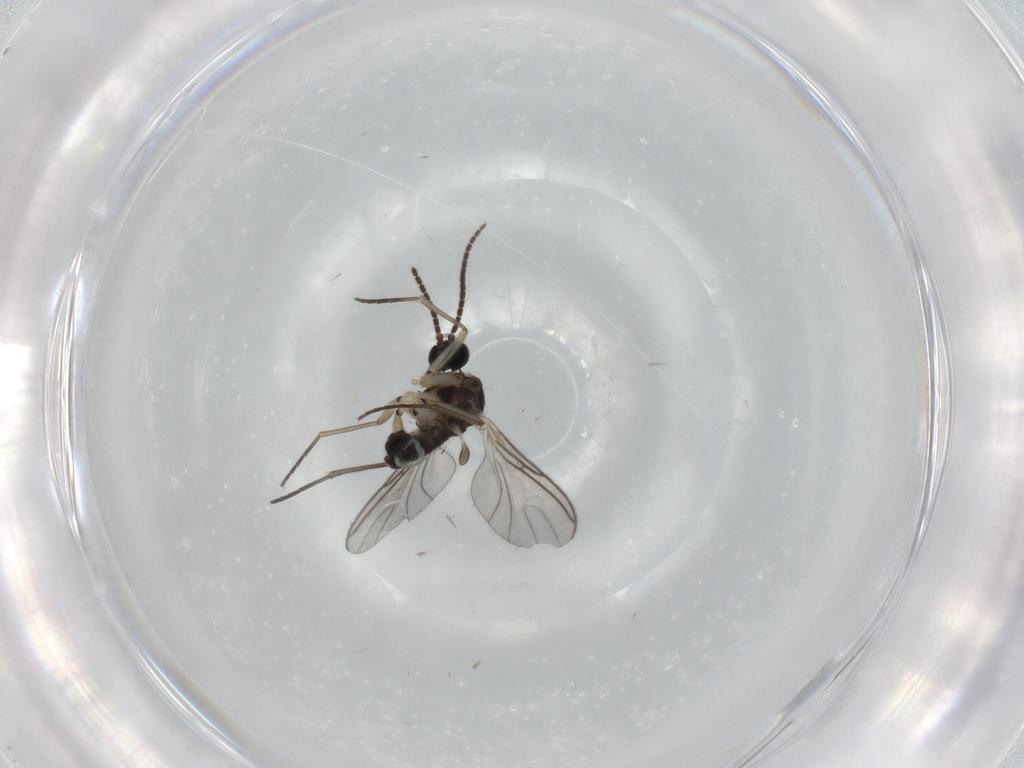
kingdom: Animalia
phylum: Arthropoda
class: Insecta
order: Diptera
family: Sciaridae
